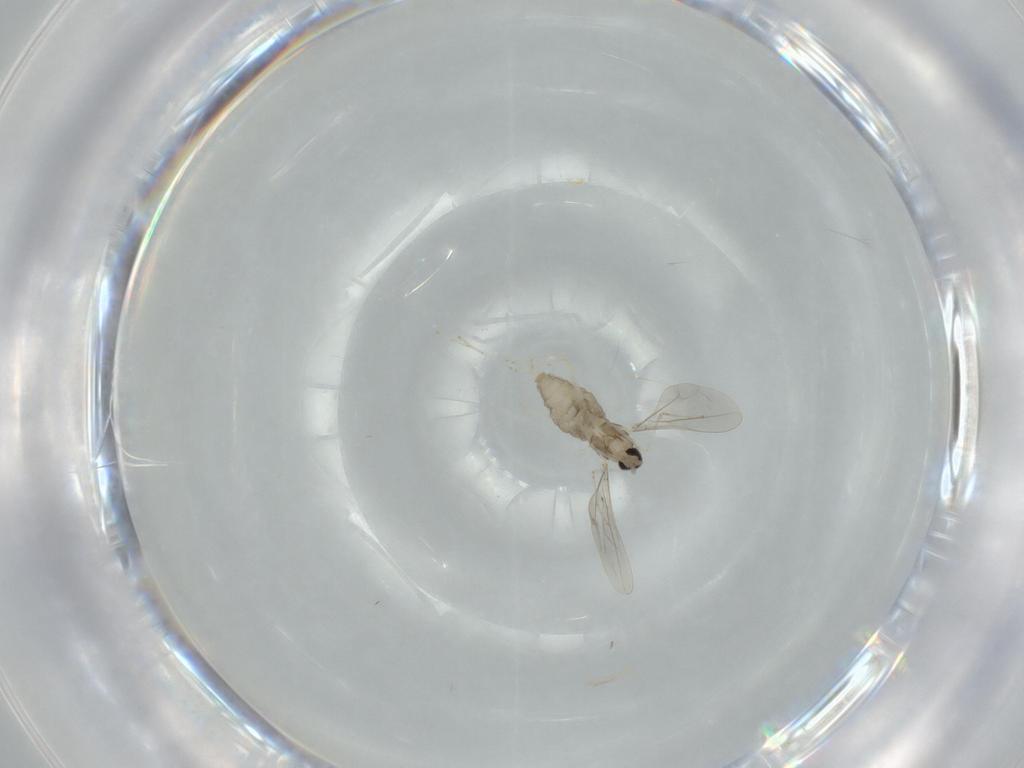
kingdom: Animalia
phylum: Arthropoda
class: Insecta
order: Diptera
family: Cecidomyiidae
